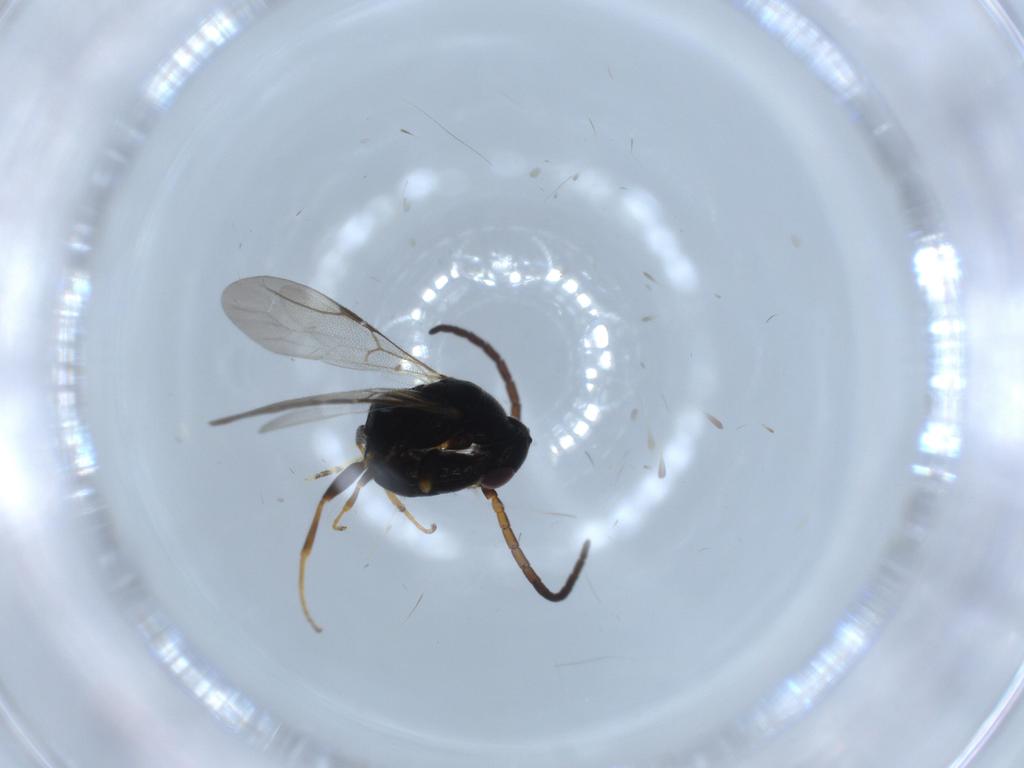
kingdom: Animalia
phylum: Arthropoda
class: Insecta
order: Hymenoptera
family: Bethylidae
